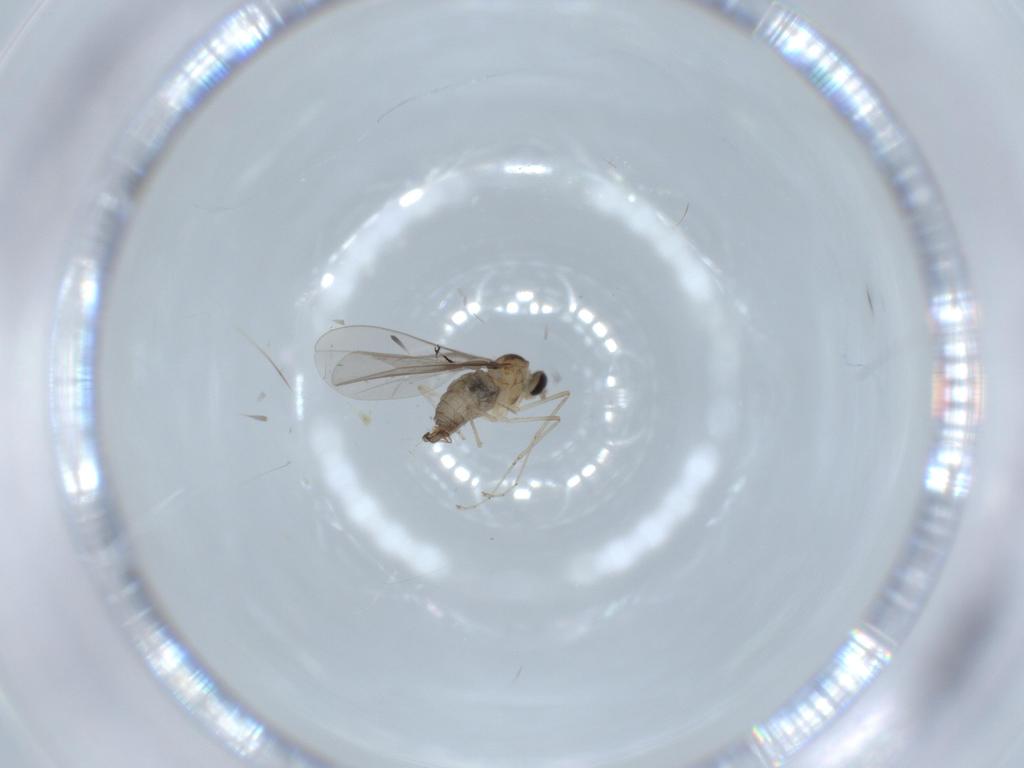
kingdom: Animalia
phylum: Arthropoda
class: Insecta
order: Diptera
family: Cecidomyiidae
